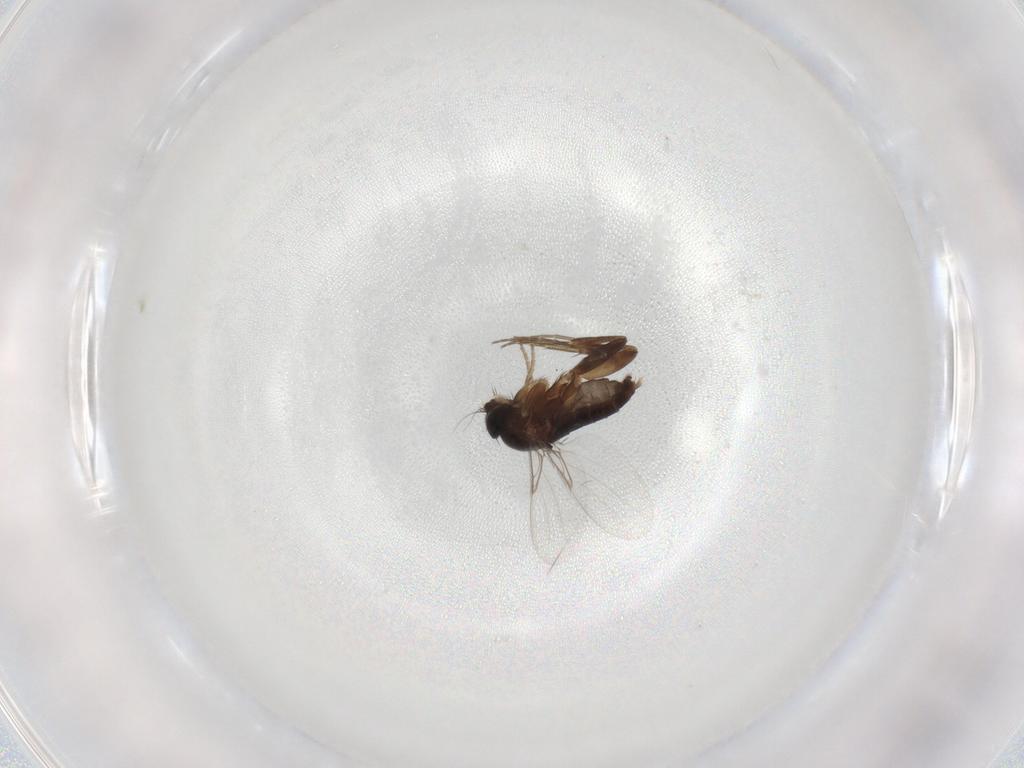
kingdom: Animalia
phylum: Arthropoda
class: Insecta
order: Diptera
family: Phoridae
